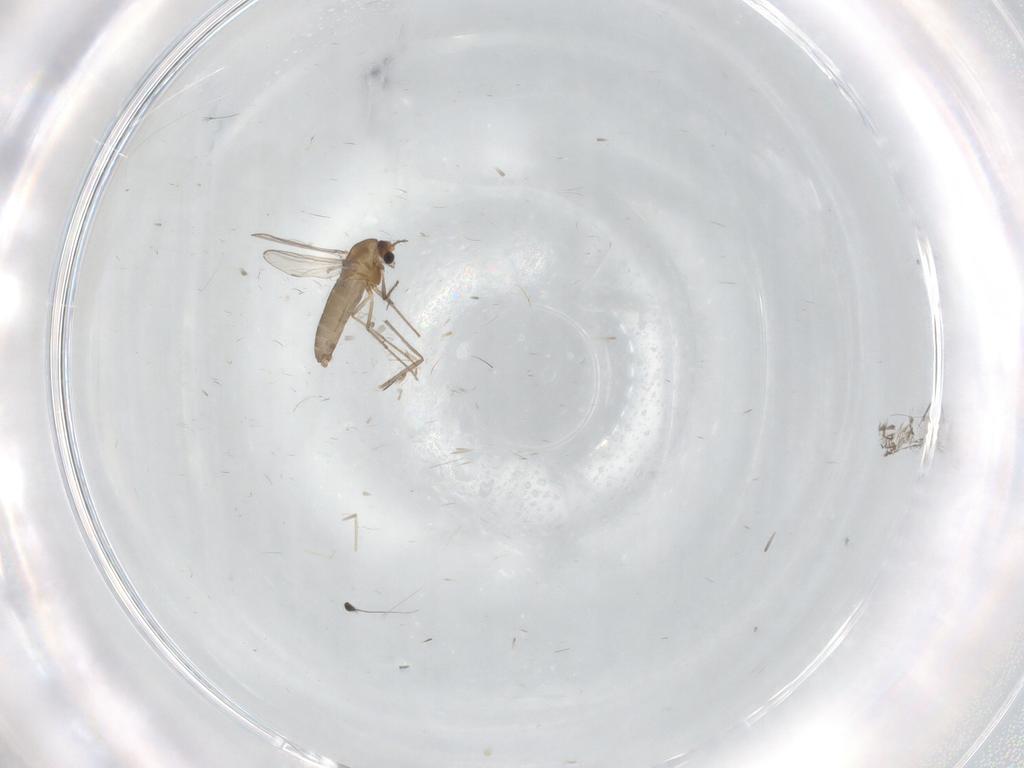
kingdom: Animalia
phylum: Arthropoda
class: Insecta
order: Diptera
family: Chironomidae
